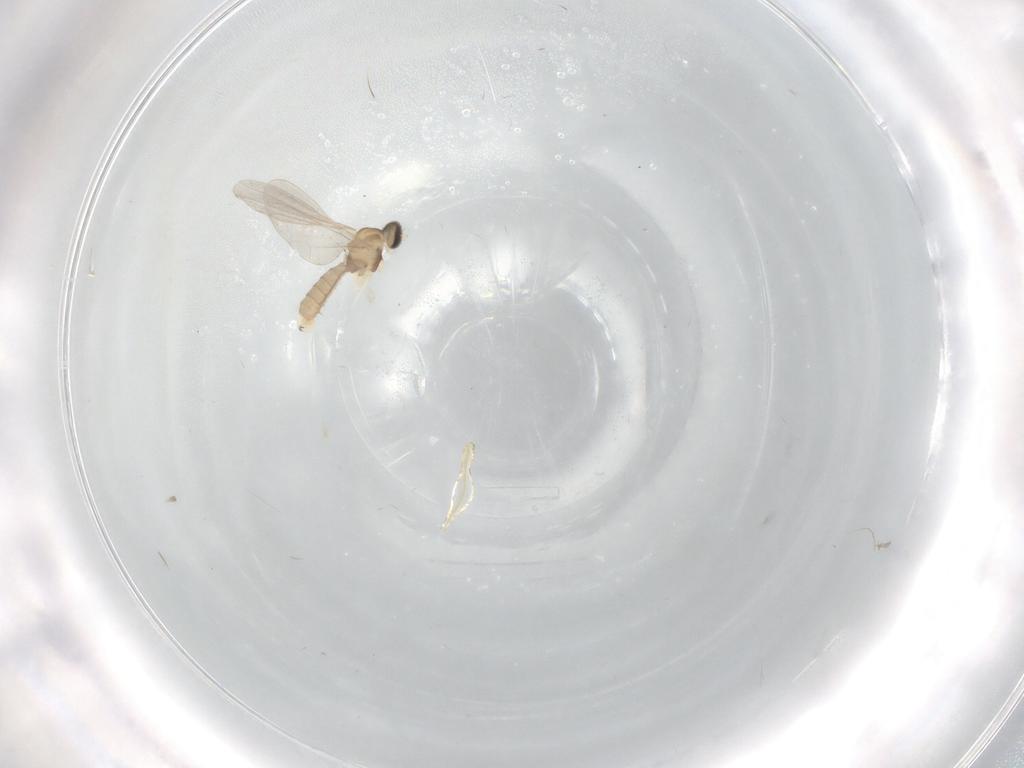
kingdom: Animalia
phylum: Arthropoda
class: Insecta
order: Diptera
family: Cecidomyiidae
